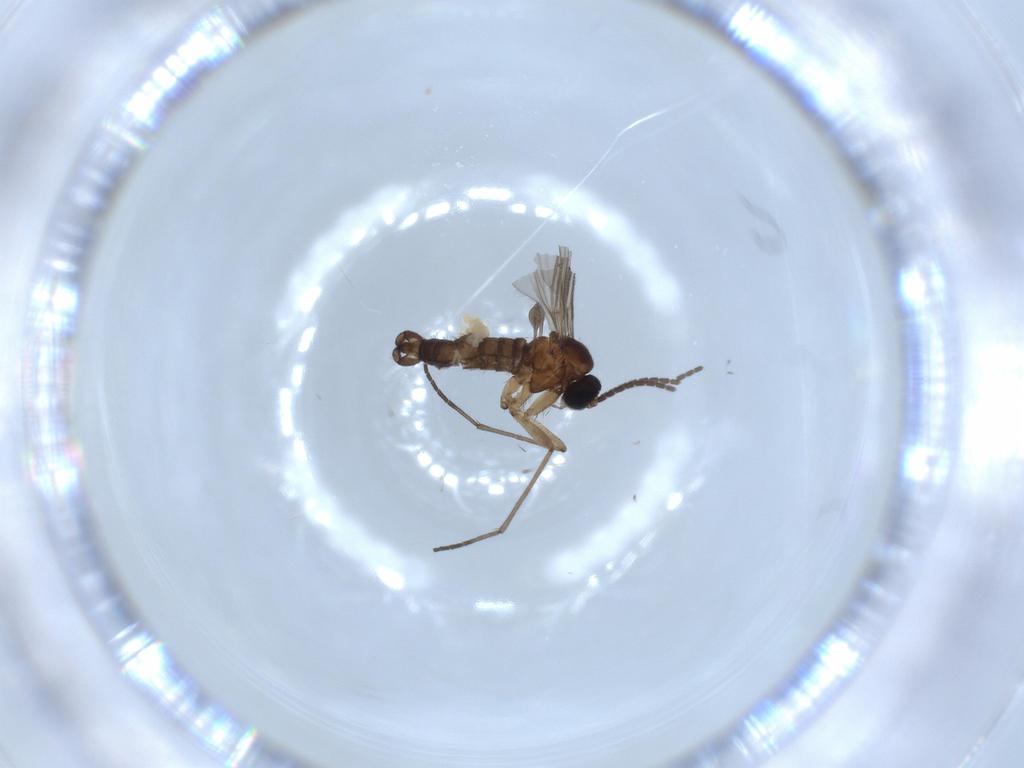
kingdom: Animalia
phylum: Arthropoda
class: Insecta
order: Diptera
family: Sciaridae
